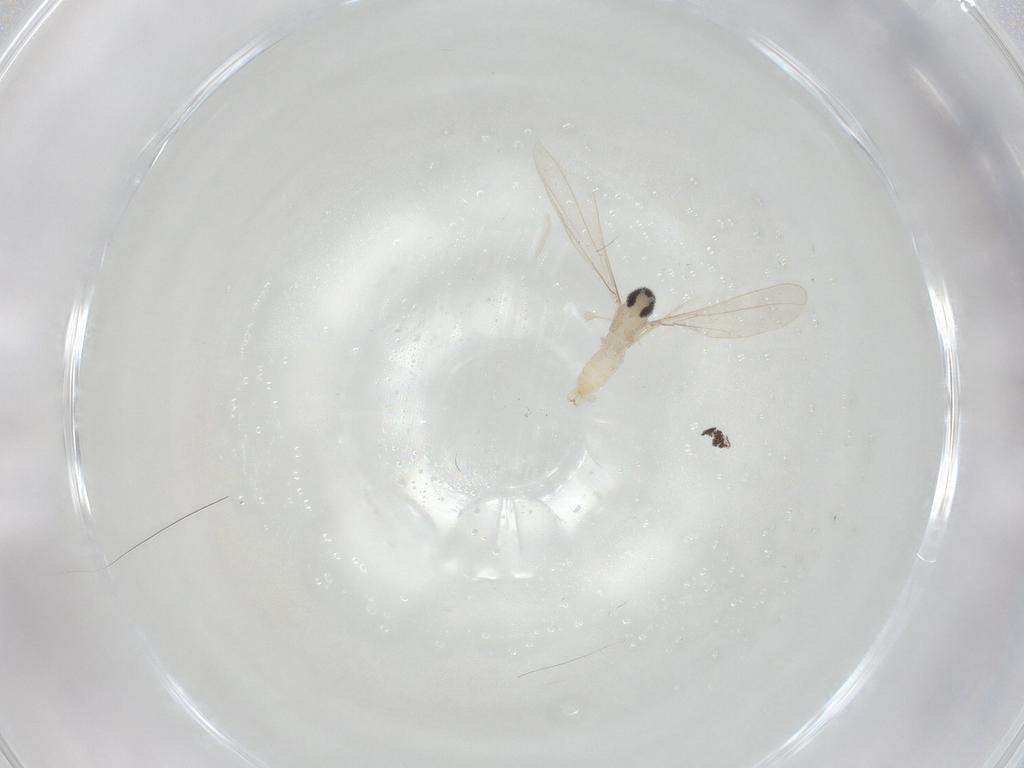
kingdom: Animalia
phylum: Arthropoda
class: Insecta
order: Diptera
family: Cecidomyiidae
